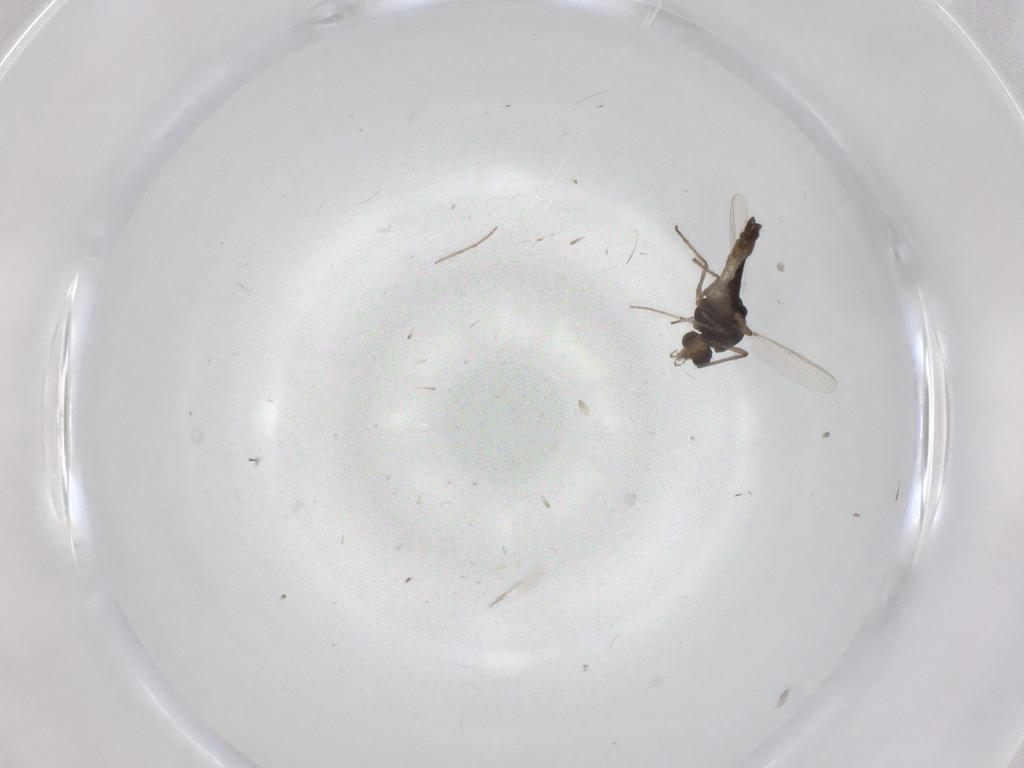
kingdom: Animalia
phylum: Arthropoda
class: Insecta
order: Diptera
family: Chironomidae
